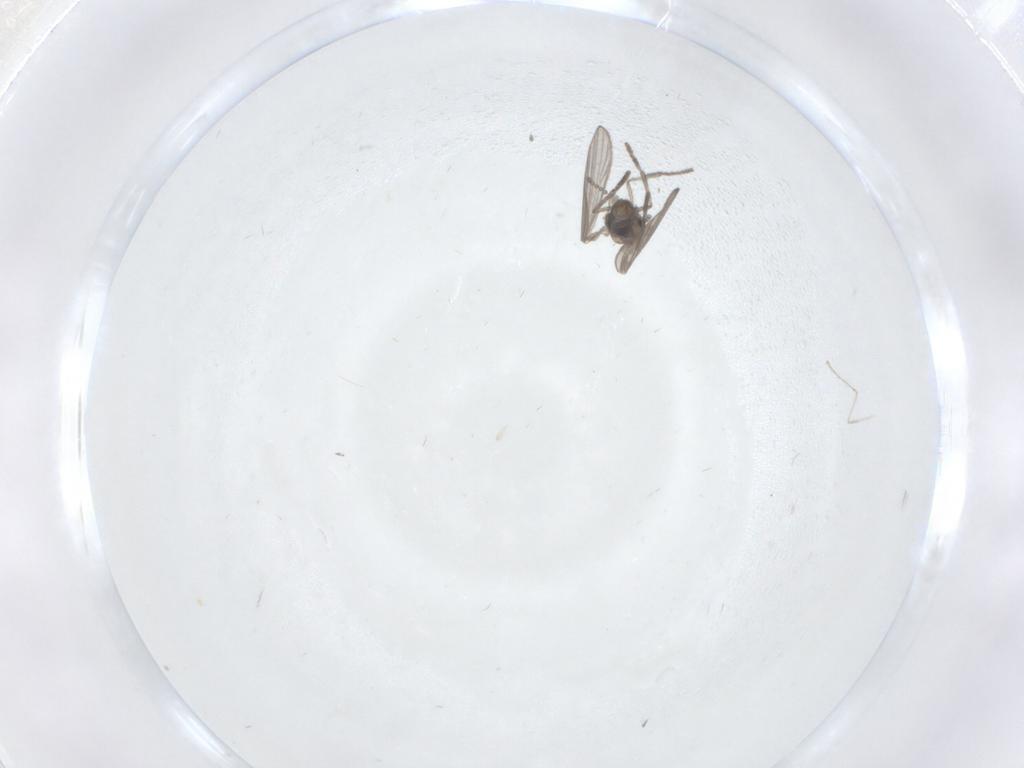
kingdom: Animalia
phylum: Arthropoda
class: Insecta
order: Diptera
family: Psychodidae
